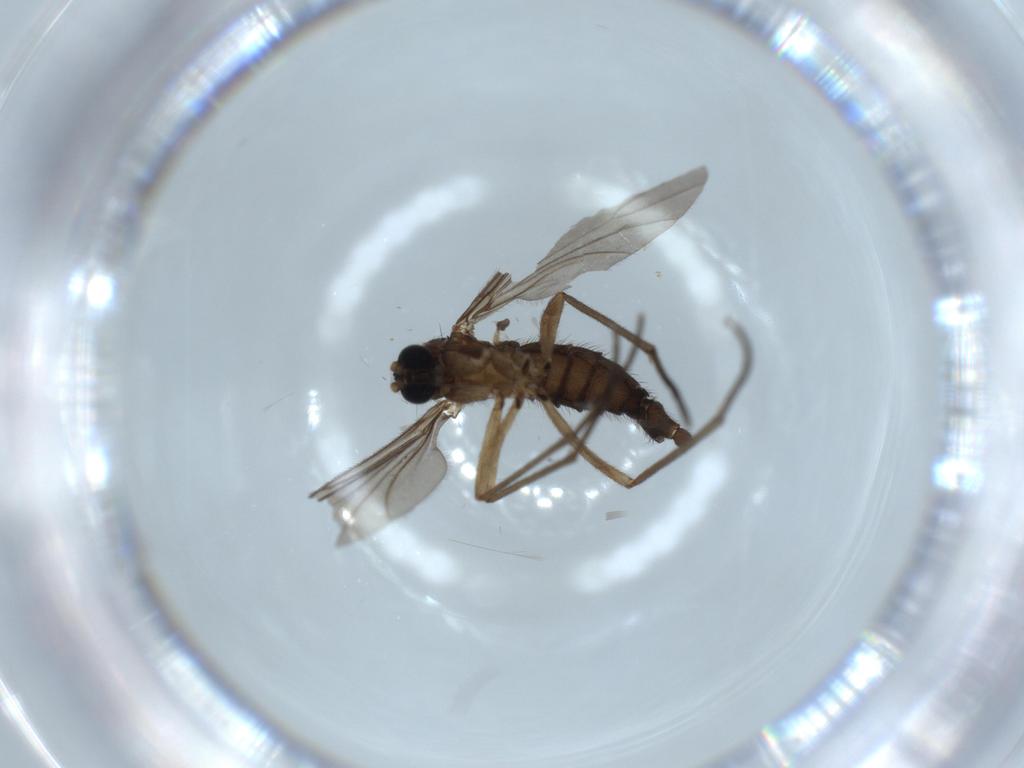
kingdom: Animalia
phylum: Arthropoda
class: Insecta
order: Diptera
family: Sciaridae
